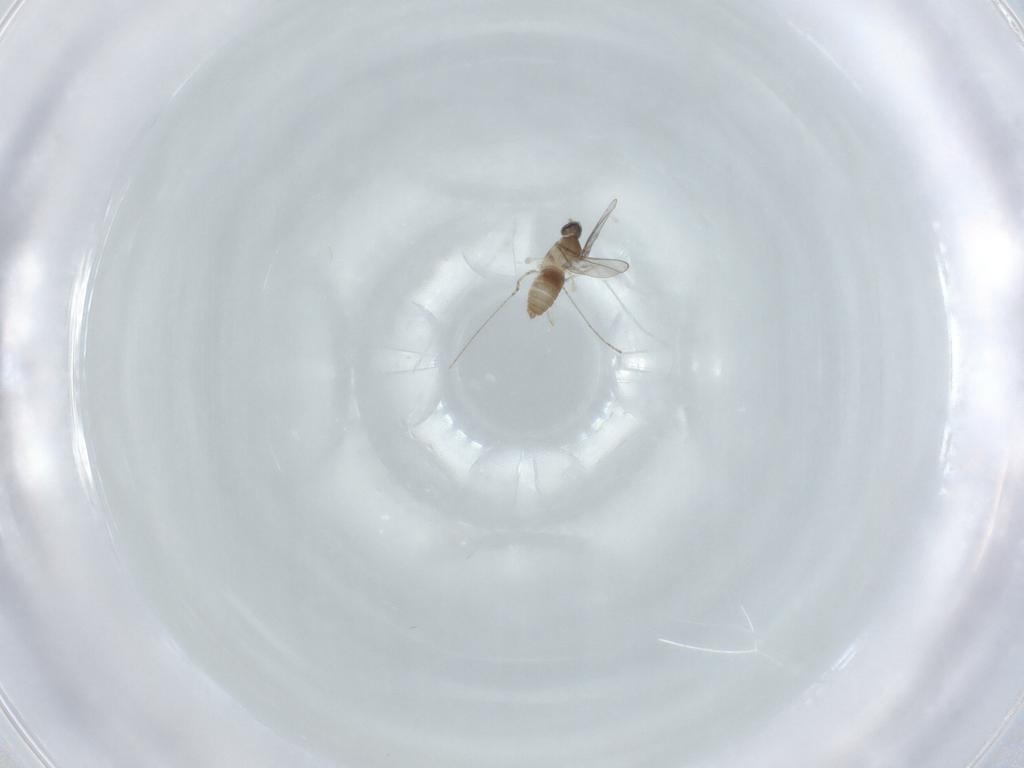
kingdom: Animalia
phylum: Arthropoda
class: Insecta
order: Diptera
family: Cecidomyiidae
